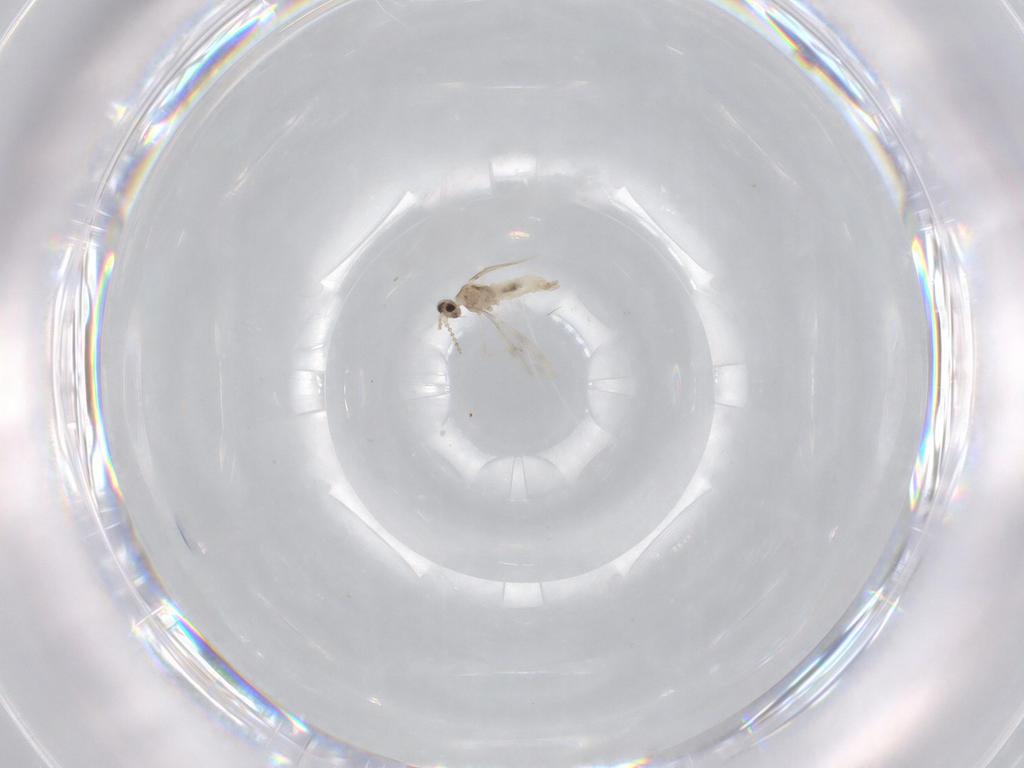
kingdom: Animalia
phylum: Arthropoda
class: Insecta
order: Diptera
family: Cecidomyiidae
